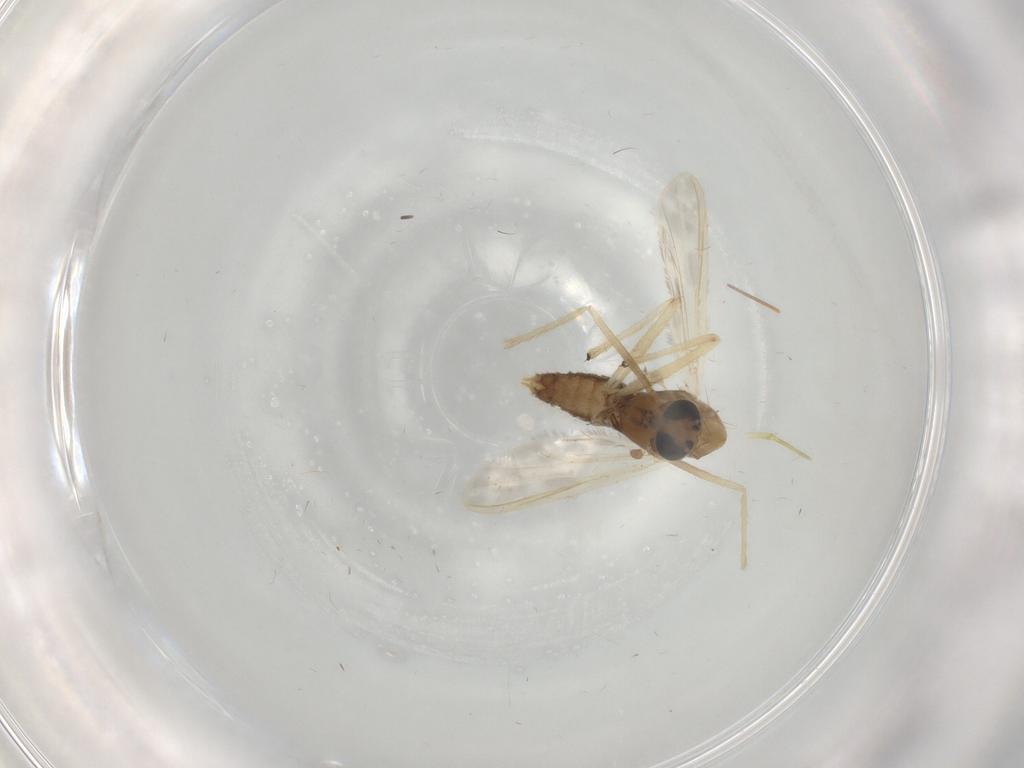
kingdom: Animalia
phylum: Arthropoda
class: Insecta
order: Diptera
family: Chironomidae
